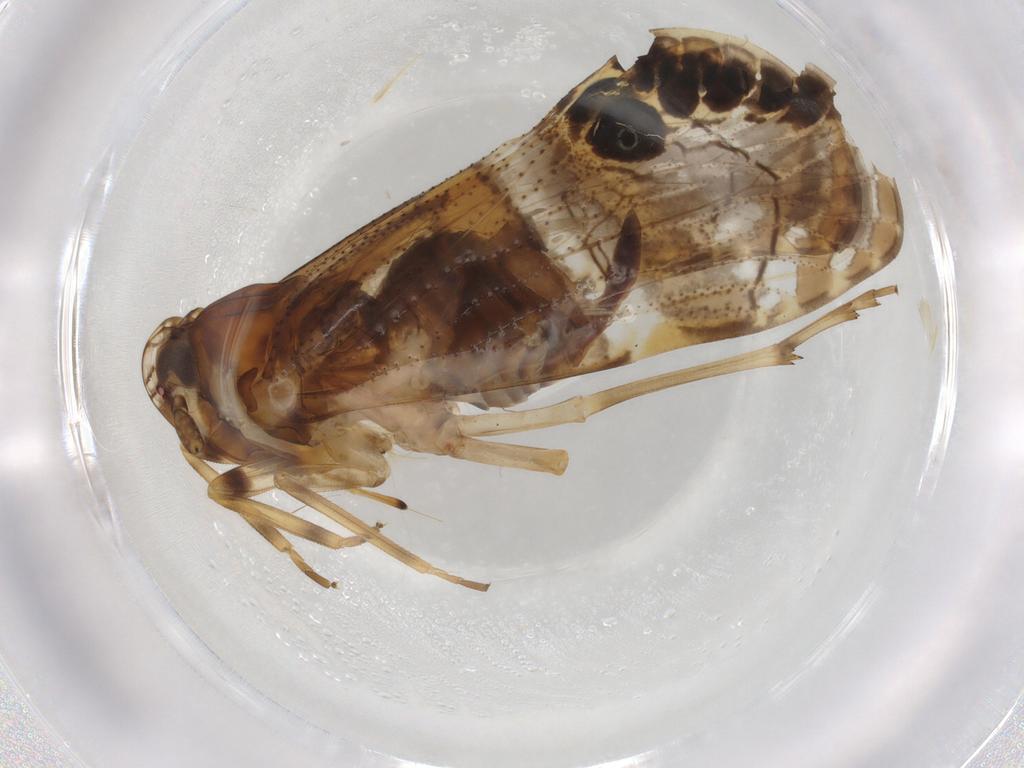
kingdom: Animalia
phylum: Arthropoda
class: Insecta
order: Hemiptera
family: Cixiidae
